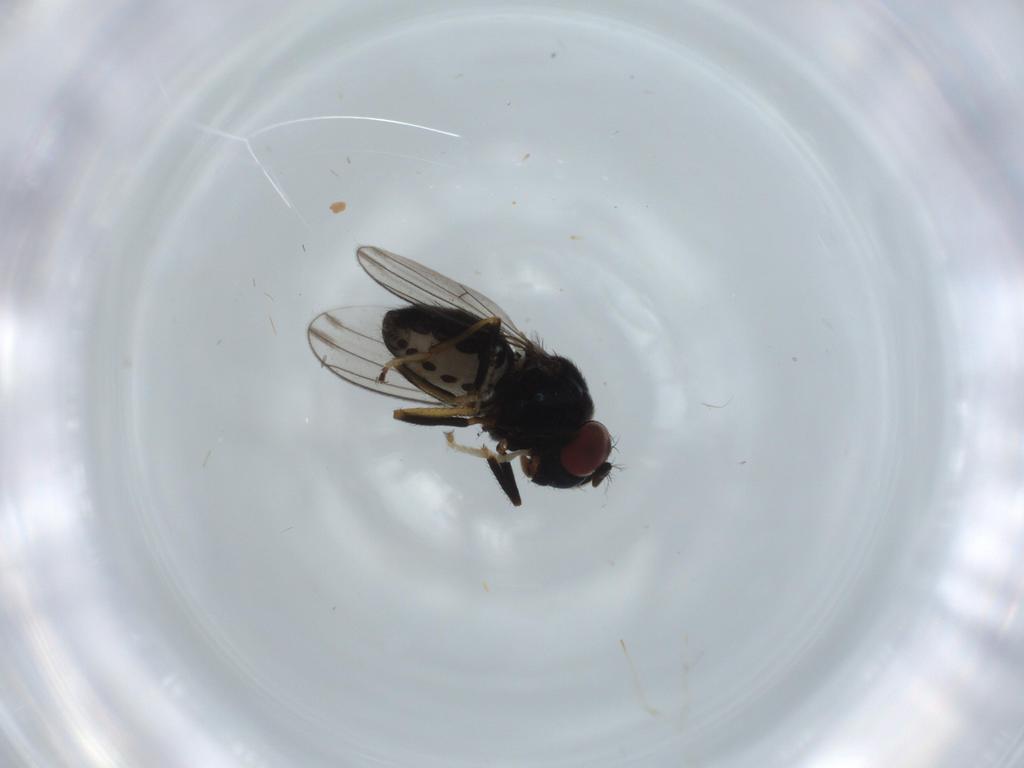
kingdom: Animalia
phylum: Arthropoda
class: Insecta
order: Diptera
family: Ephydridae
